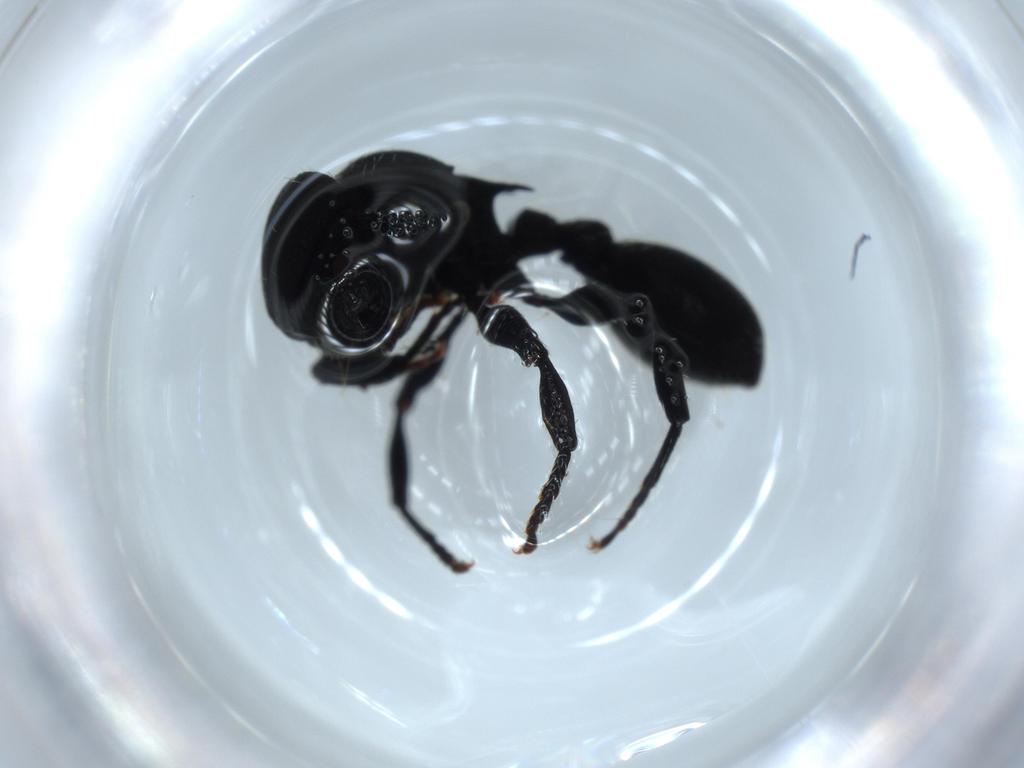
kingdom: Animalia
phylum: Arthropoda
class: Insecta
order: Hymenoptera
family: Formicidae
